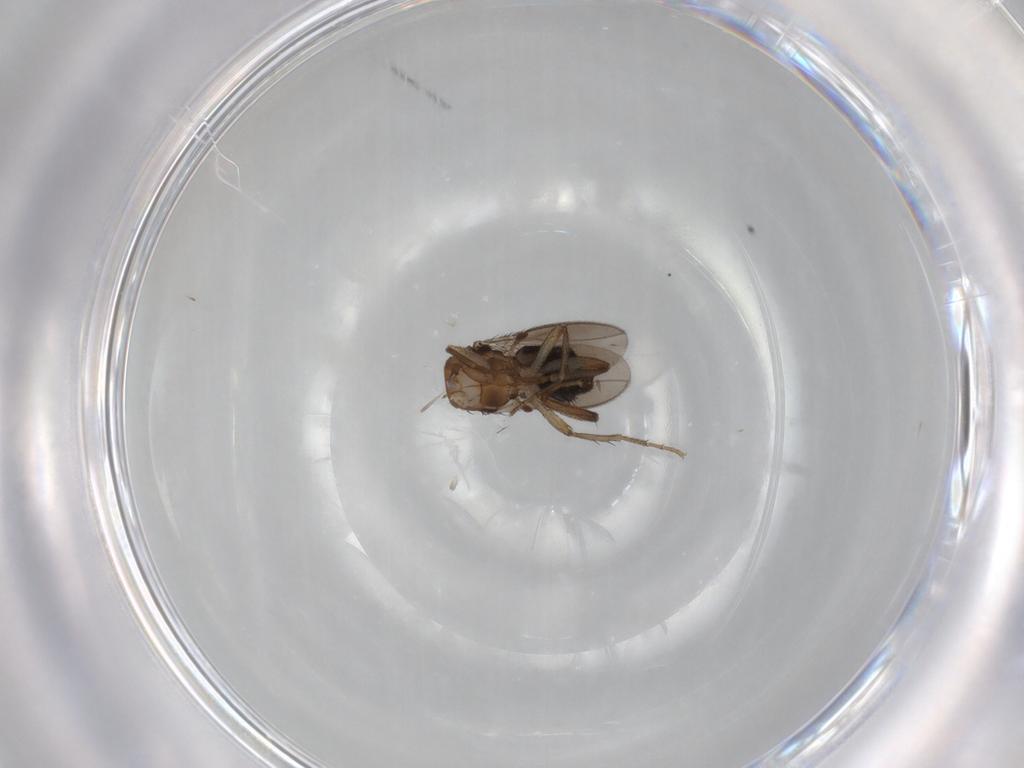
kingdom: Animalia
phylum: Arthropoda
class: Insecta
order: Diptera
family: Sphaeroceridae
